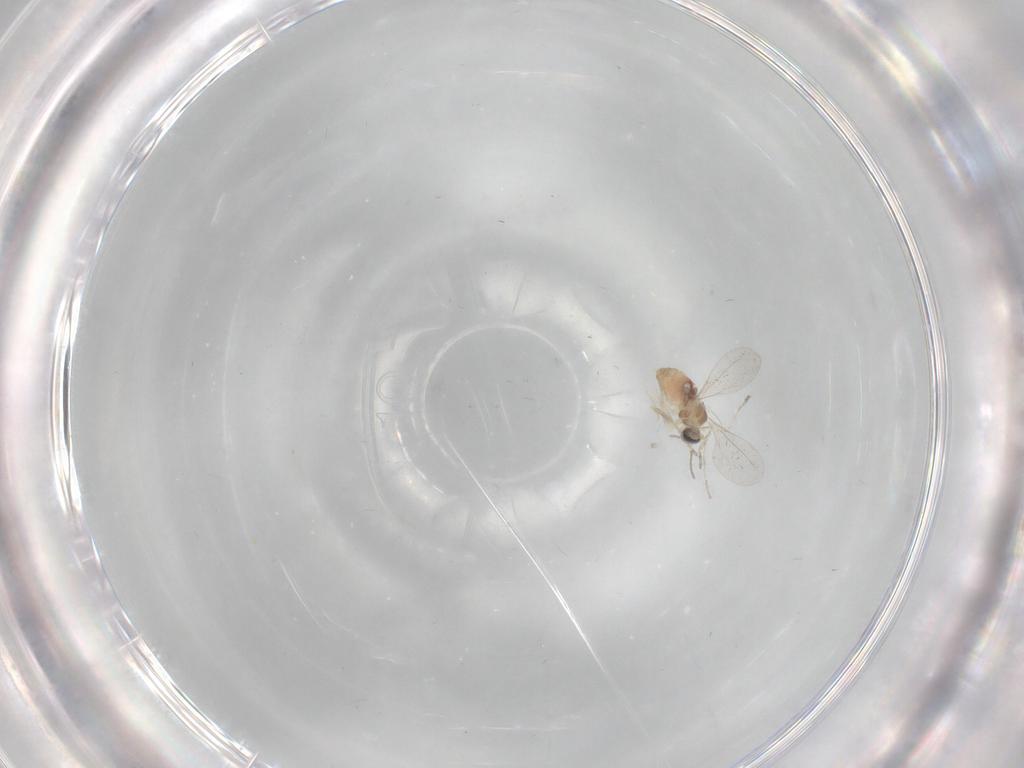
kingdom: Animalia
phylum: Arthropoda
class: Insecta
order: Diptera
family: Cecidomyiidae
